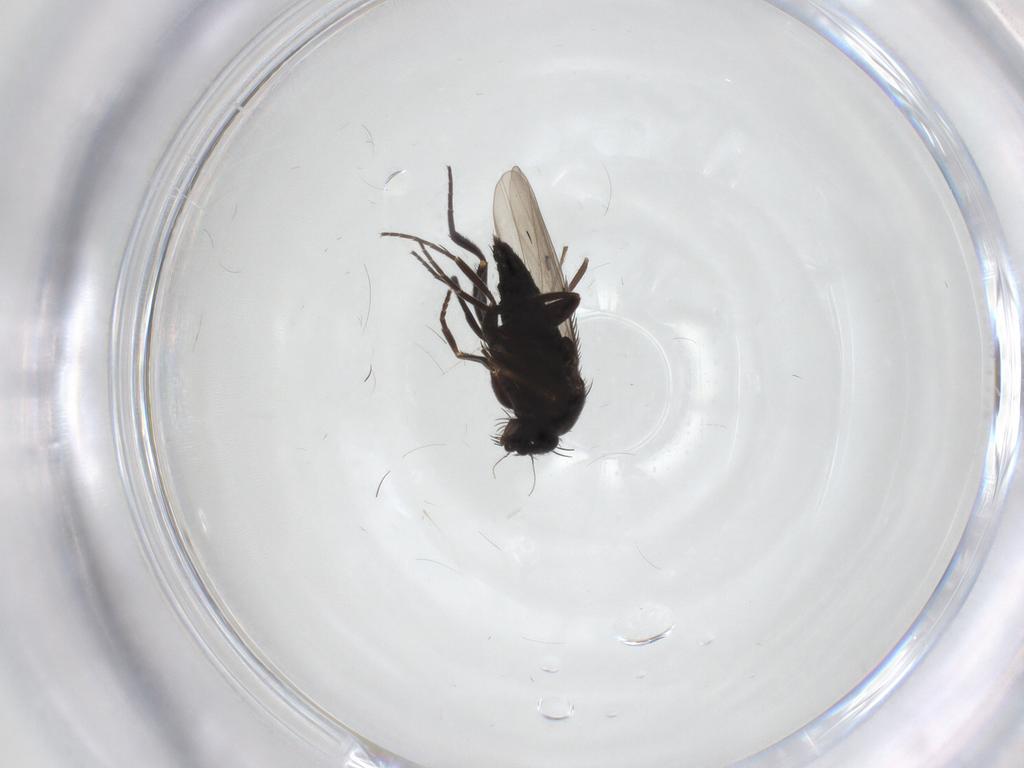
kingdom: Animalia
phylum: Arthropoda
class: Insecta
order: Diptera
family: Phoridae
